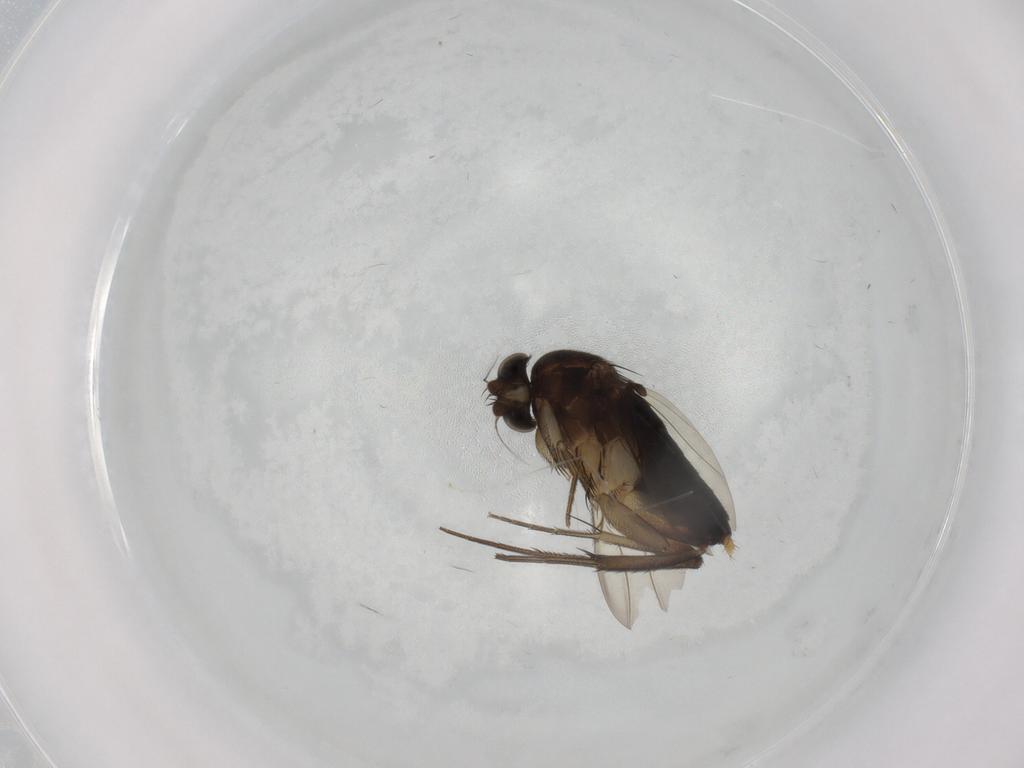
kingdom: Animalia
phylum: Arthropoda
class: Insecta
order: Diptera
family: Phoridae
